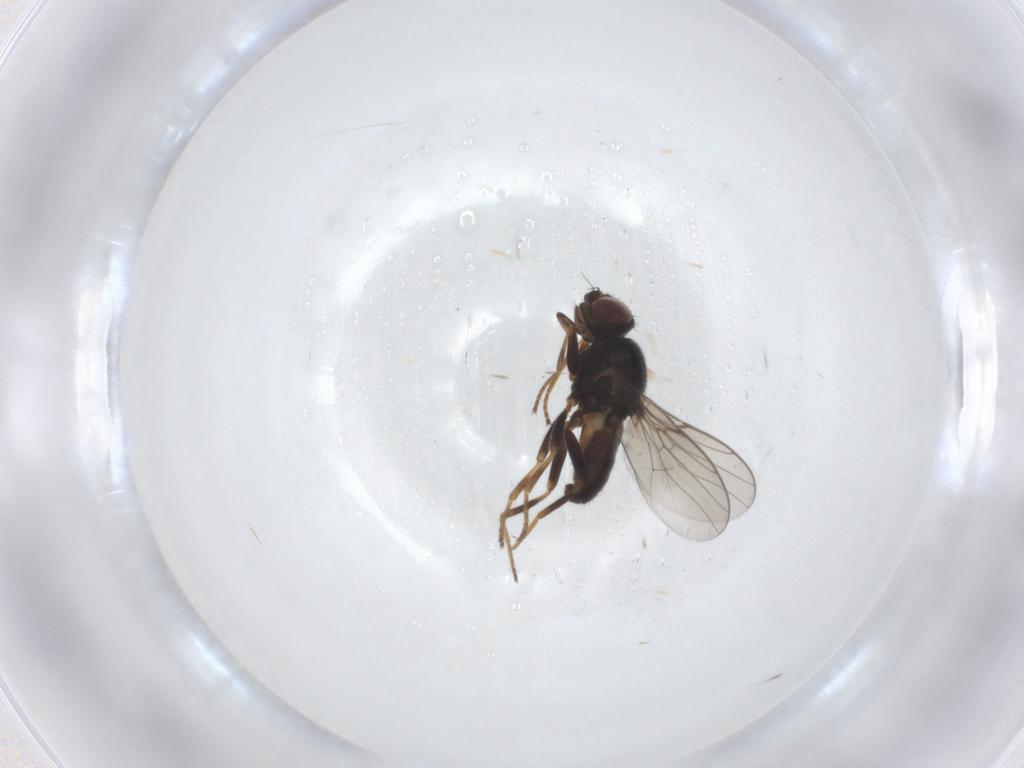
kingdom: Animalia
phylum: Arthropoda
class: Insecta
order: Diptera
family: Chloropidae
